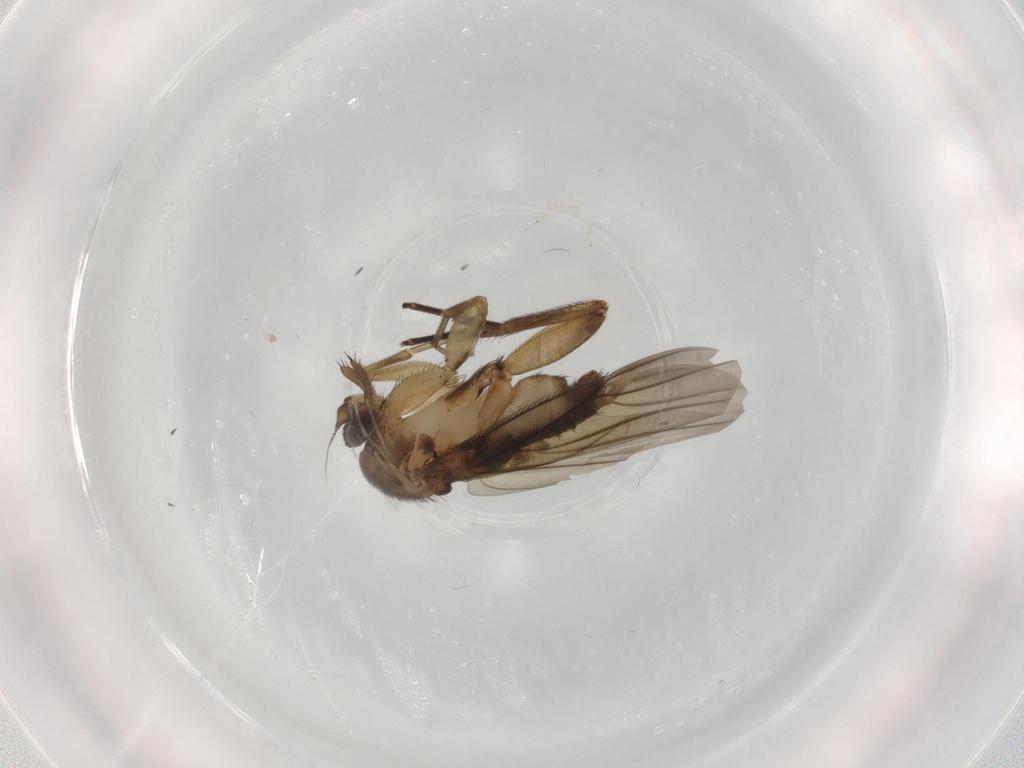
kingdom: Animalia
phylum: Arthropoda
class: Insecta
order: Diptera
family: Phoridae
